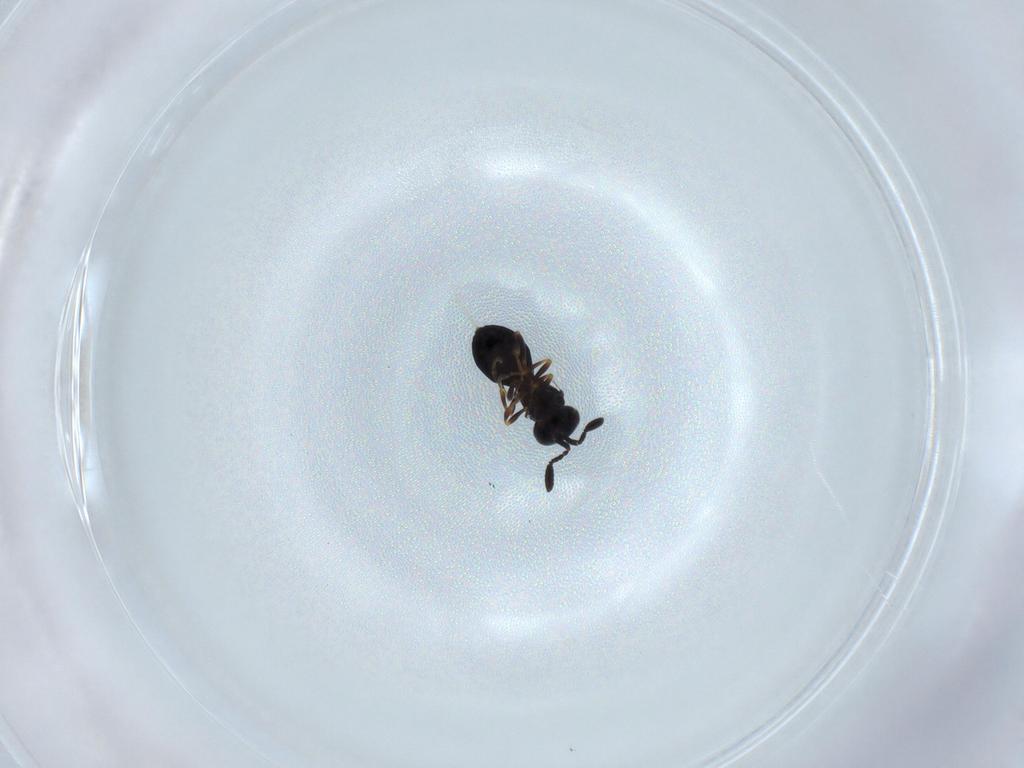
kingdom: Animalia
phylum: Arthropoda
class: Insecta
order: Hymenoptera
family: Scelionidae
